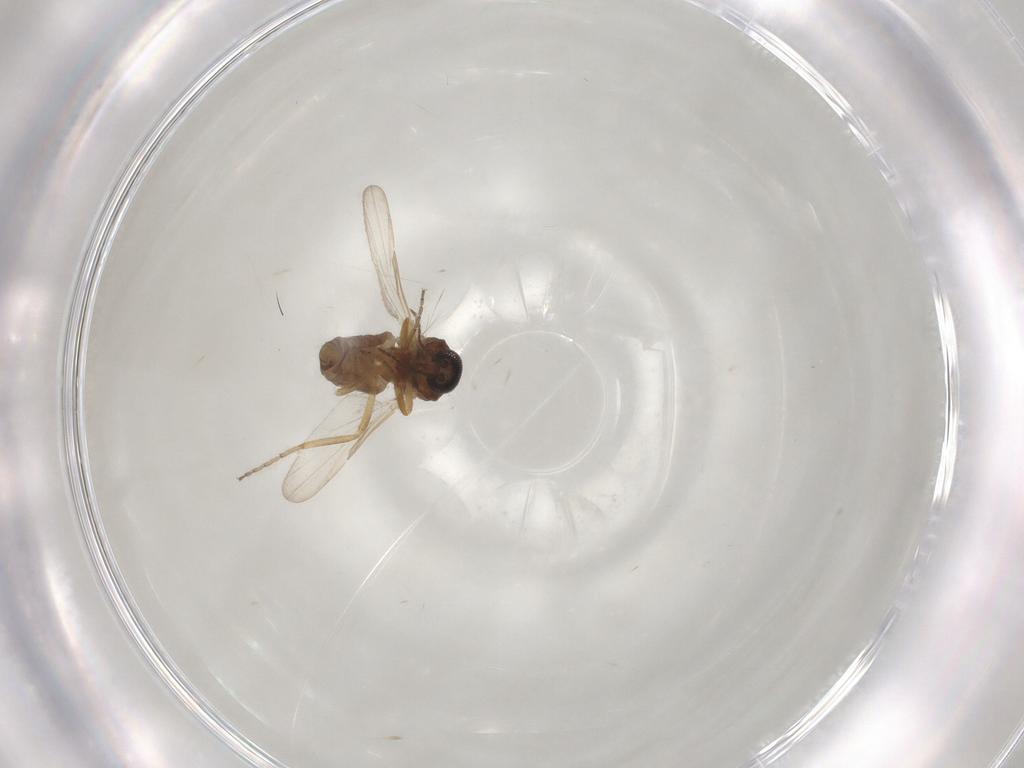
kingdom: Animalia
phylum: Arthropoda
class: Insecta
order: Diptera
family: Ceratopogonidae
